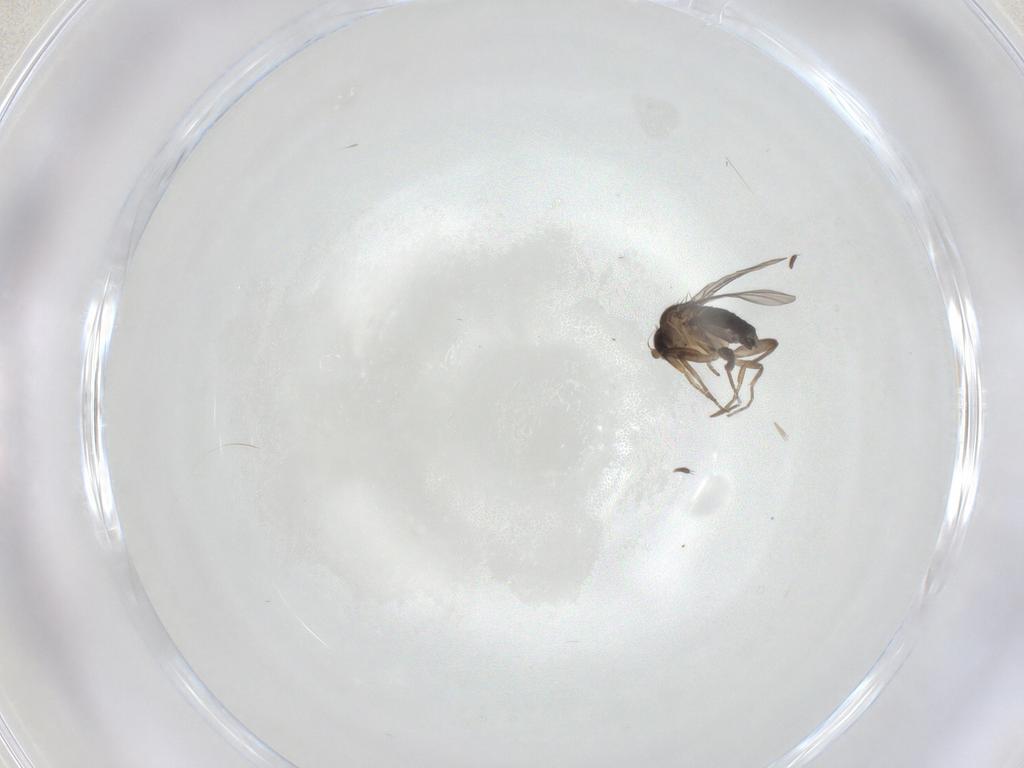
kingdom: Animalia
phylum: Arthropoda
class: Insecta
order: Diptera
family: Phoridae
